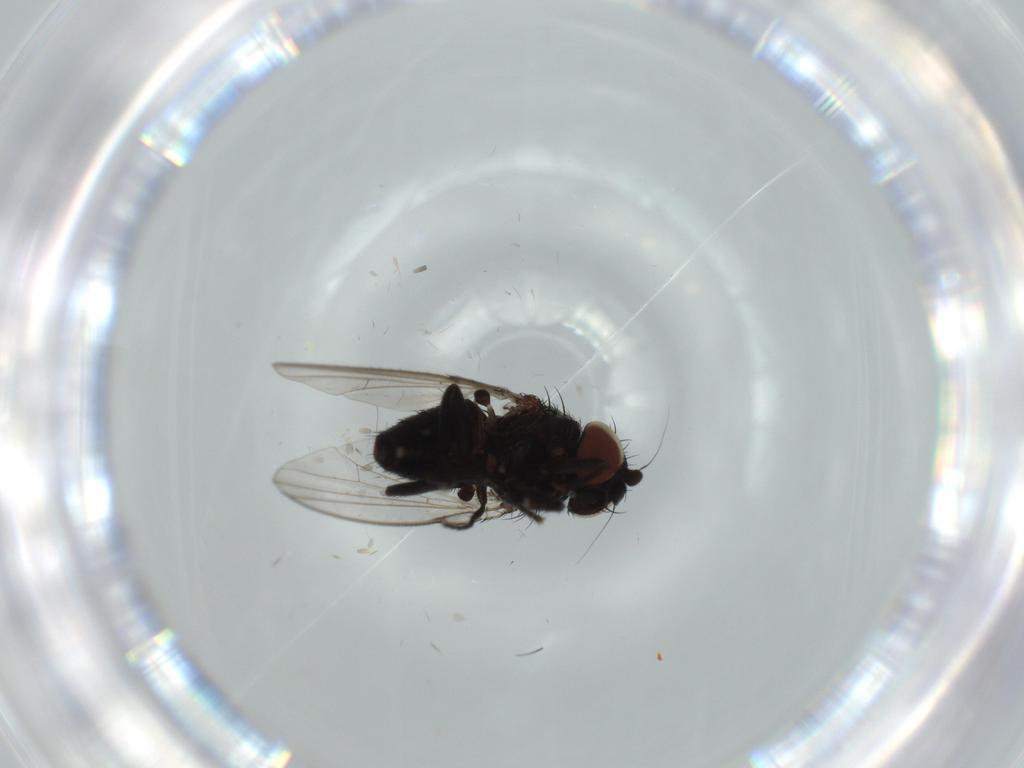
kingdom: Animalia
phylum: Arthropoda
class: Insecta
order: Diptera
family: Milichiidae
